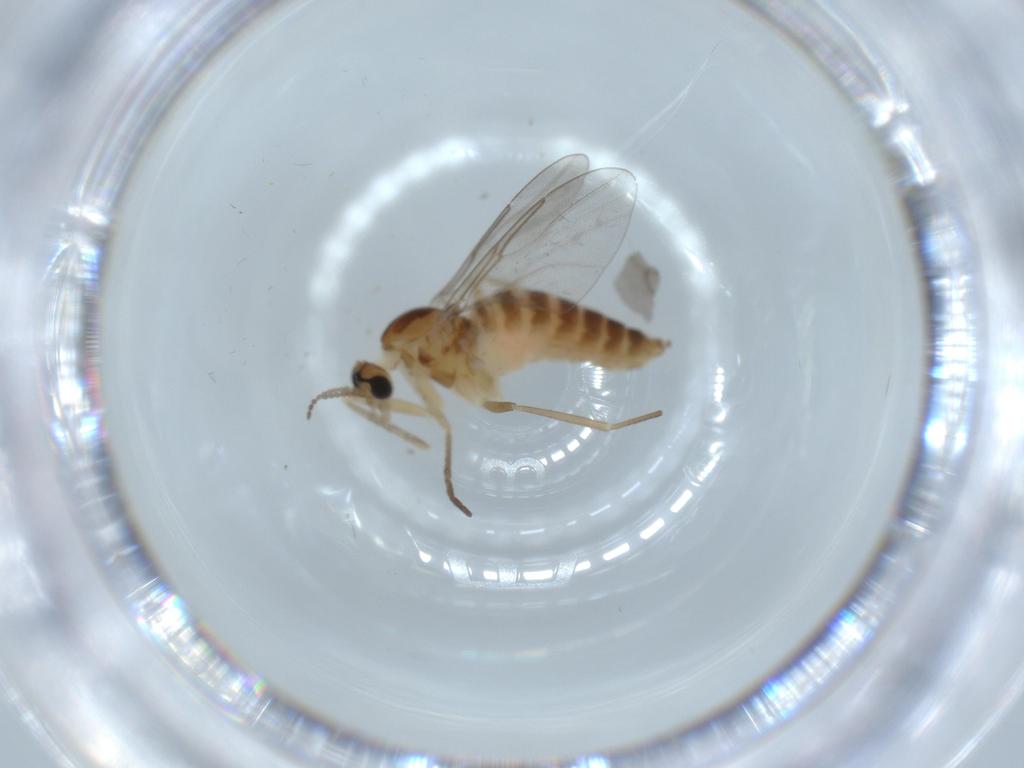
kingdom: Animalia
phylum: Arthropoda
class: Insecta
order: Diptera
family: Cecidomyiidae
